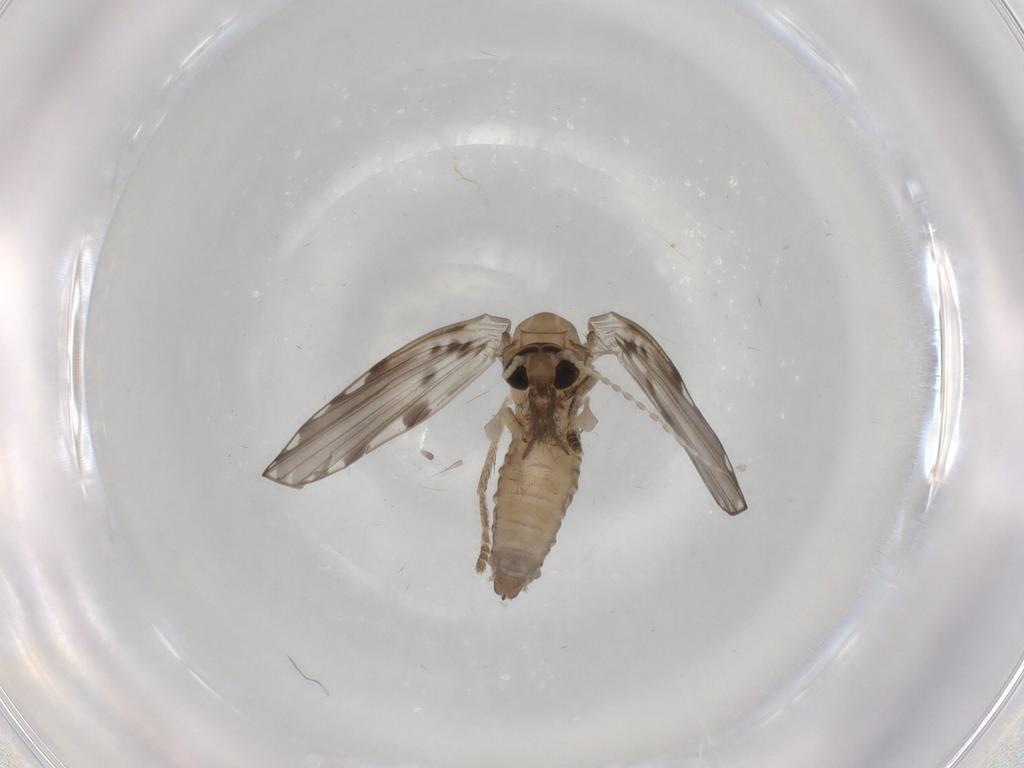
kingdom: Animalia
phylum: Arthropoda
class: Insecta
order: Diptera
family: Psychodidae
